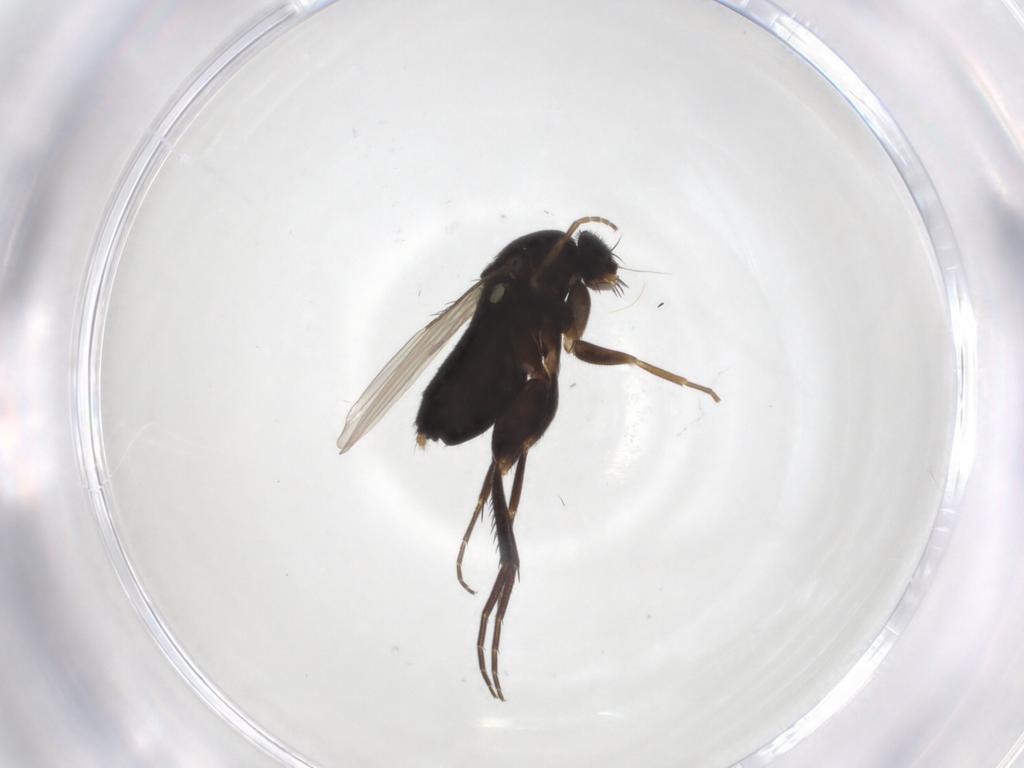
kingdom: Animalia
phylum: Arthropoda
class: Insecta
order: Diptera
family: Phoridae
